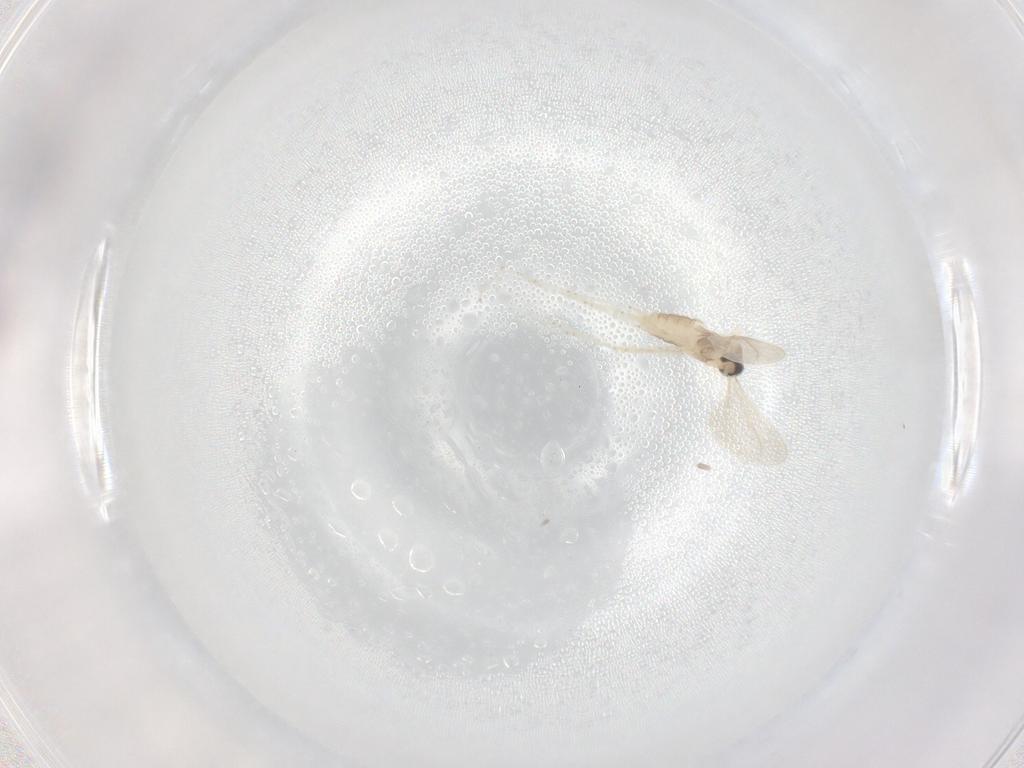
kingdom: Animalia
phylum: Arthropoda
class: Insecta
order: Diptera
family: Cecidomyiidae
